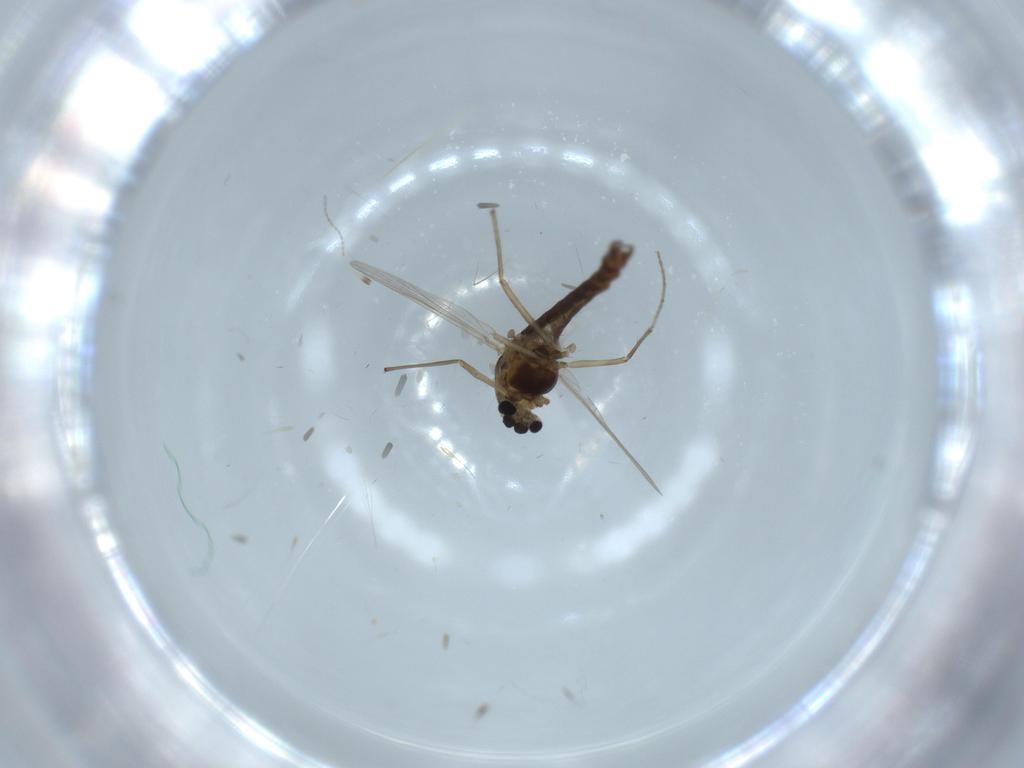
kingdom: Animalia
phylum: Arthropoda
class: Insecta
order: Diptera
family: Chironomidae
